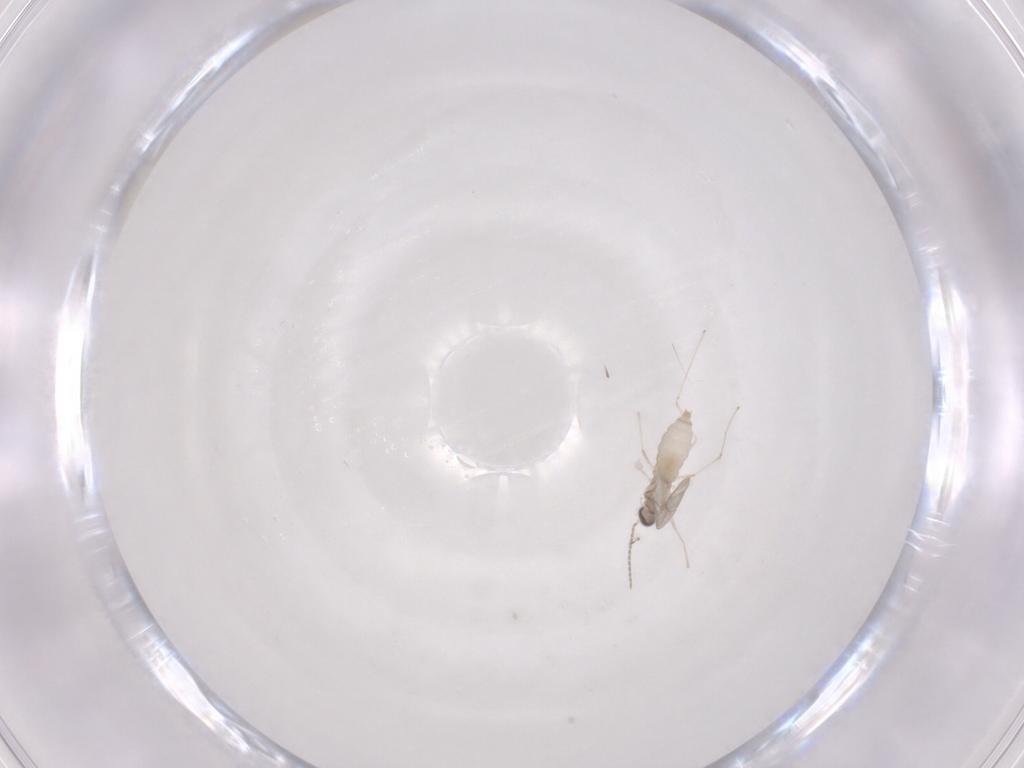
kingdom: Animalia
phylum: Arthropoda
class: Insecta
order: Diptera
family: Cecidomyiidae
